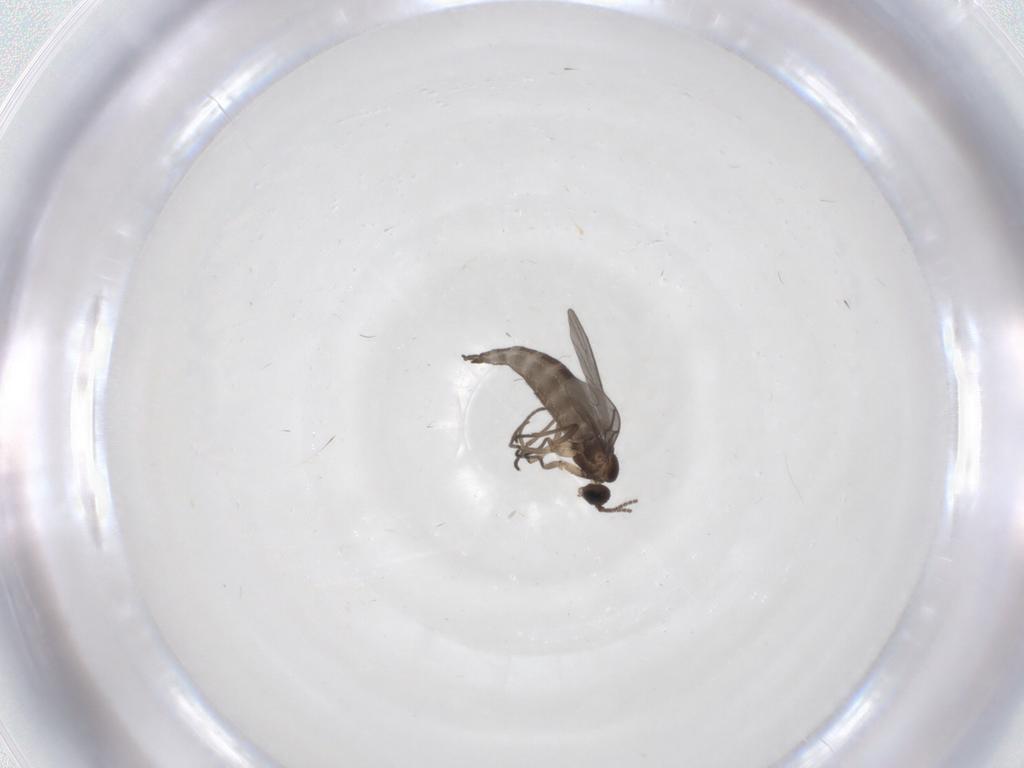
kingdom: Animalia
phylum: Arthropoda
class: Insecta
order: Diptera
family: Sciaridae
